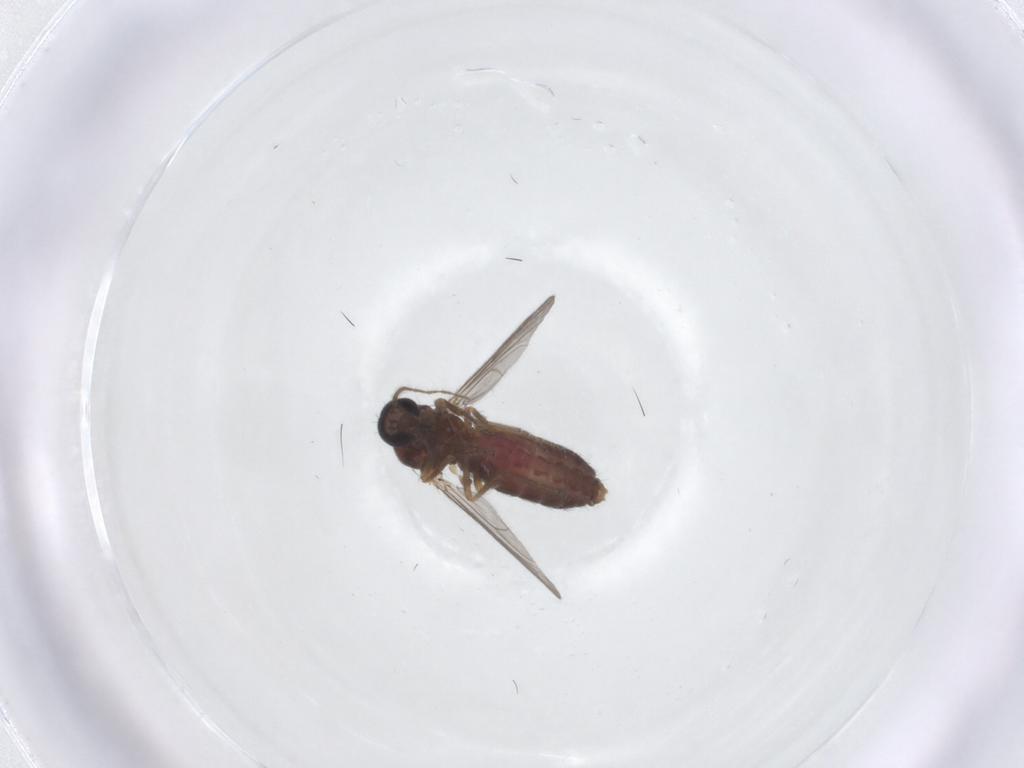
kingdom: Animalia
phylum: Arthropoda
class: Insecta
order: Diptera
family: Ceratopogonidae
